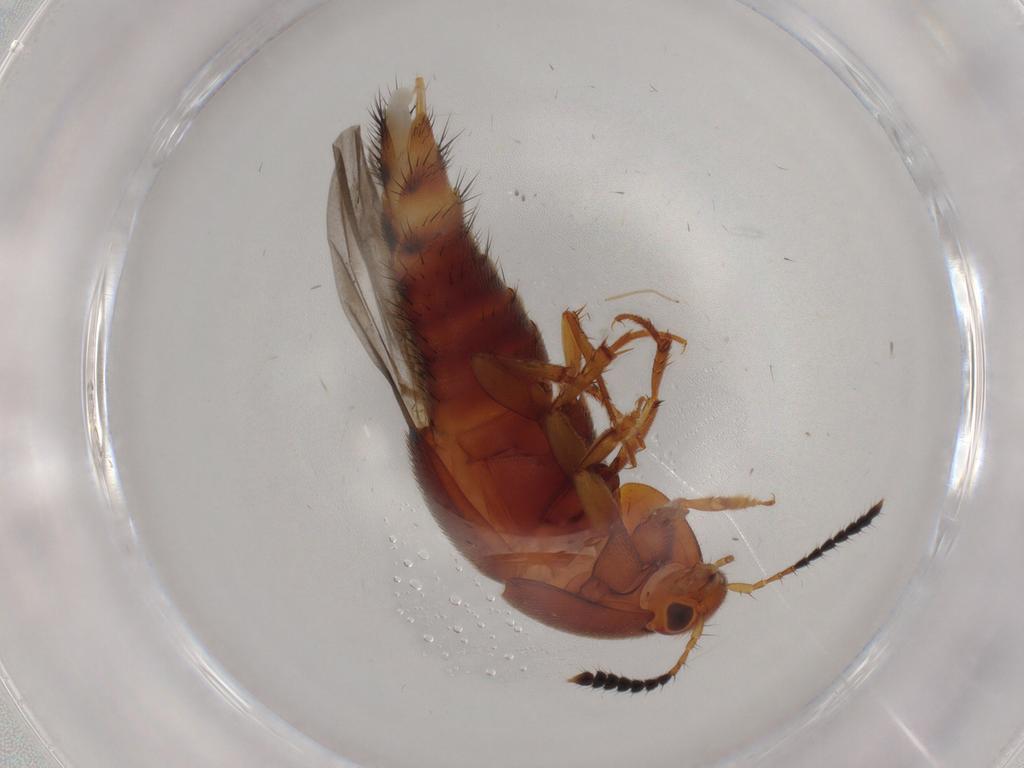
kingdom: Animalia
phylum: Arthropoda
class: Insecta
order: Coleoptera
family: Staphylinidae
